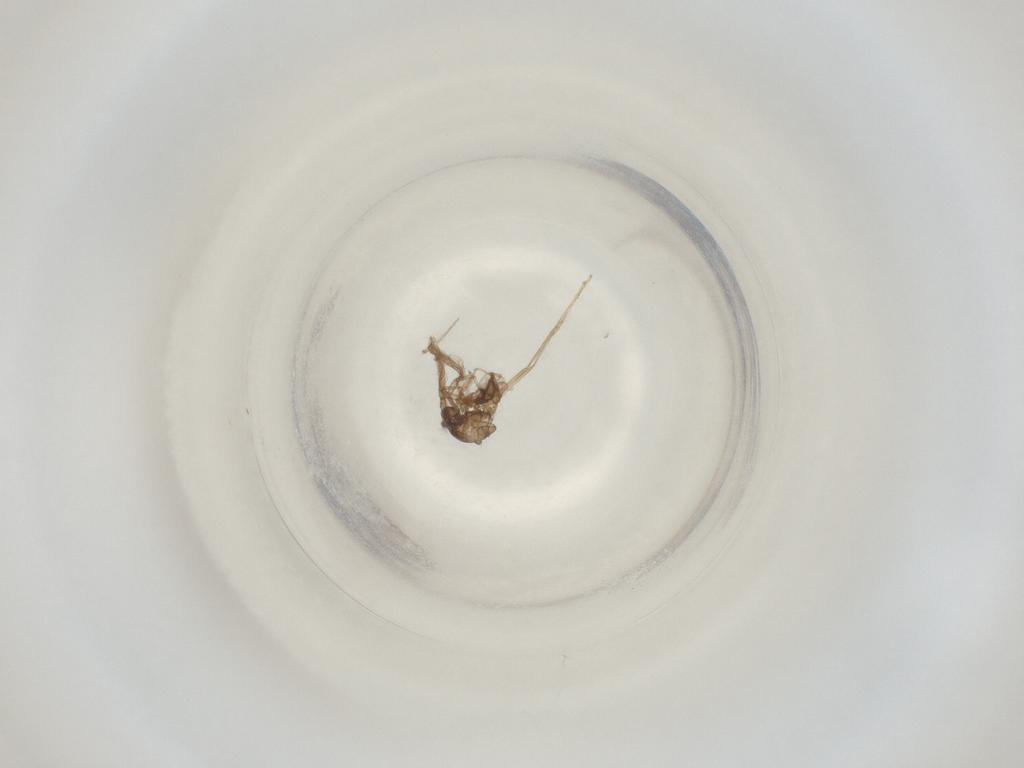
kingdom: Animalia
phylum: Arthropoda
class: Insecta
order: Diptera
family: Cecidomyiidae
